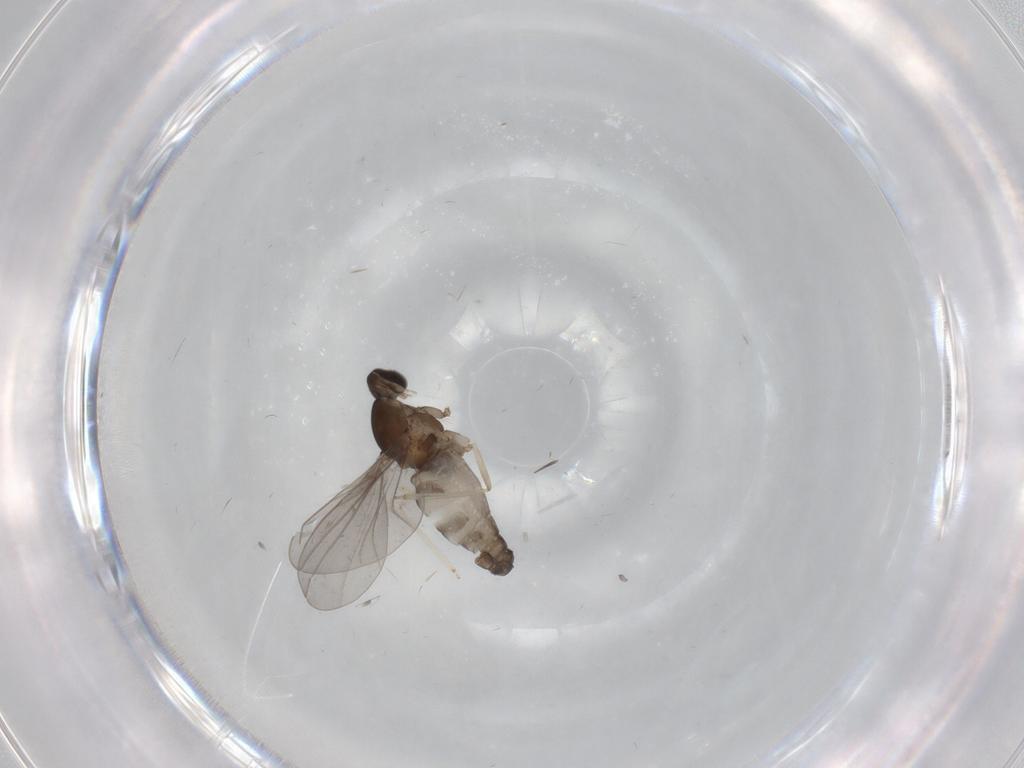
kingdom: Animalia
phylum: Arthropoda
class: Insecta
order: Diptera
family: Cecidomyiidae
